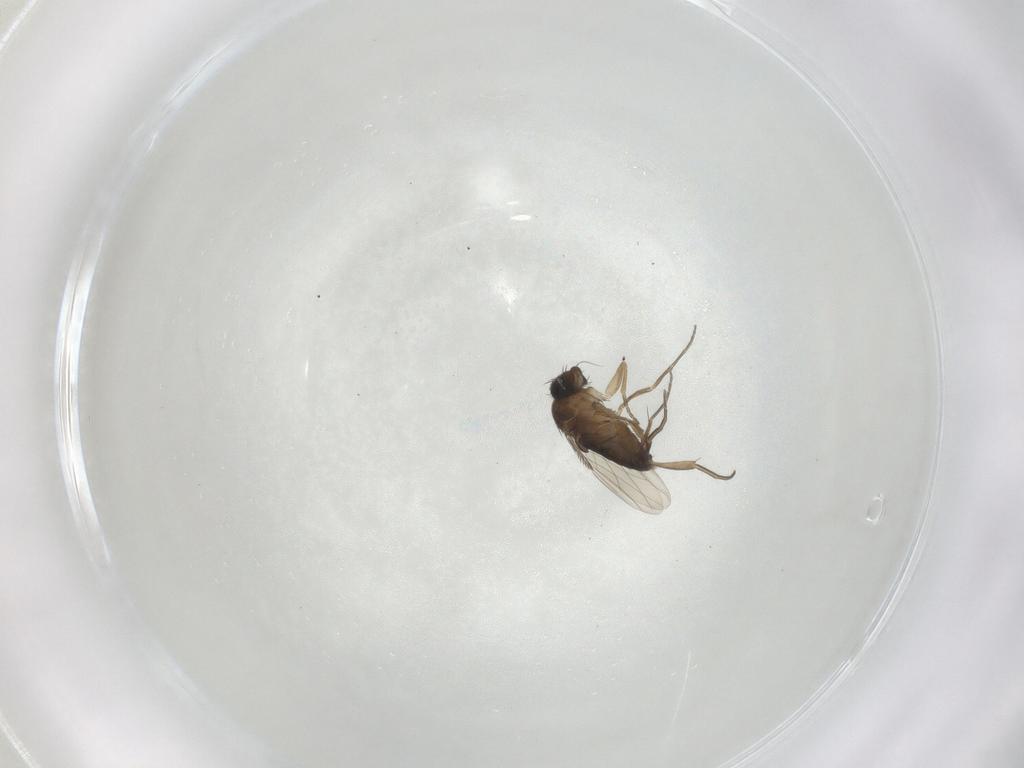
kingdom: Animalia
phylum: Arthropoda
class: Insecta
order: Diptera
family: Phoridae
